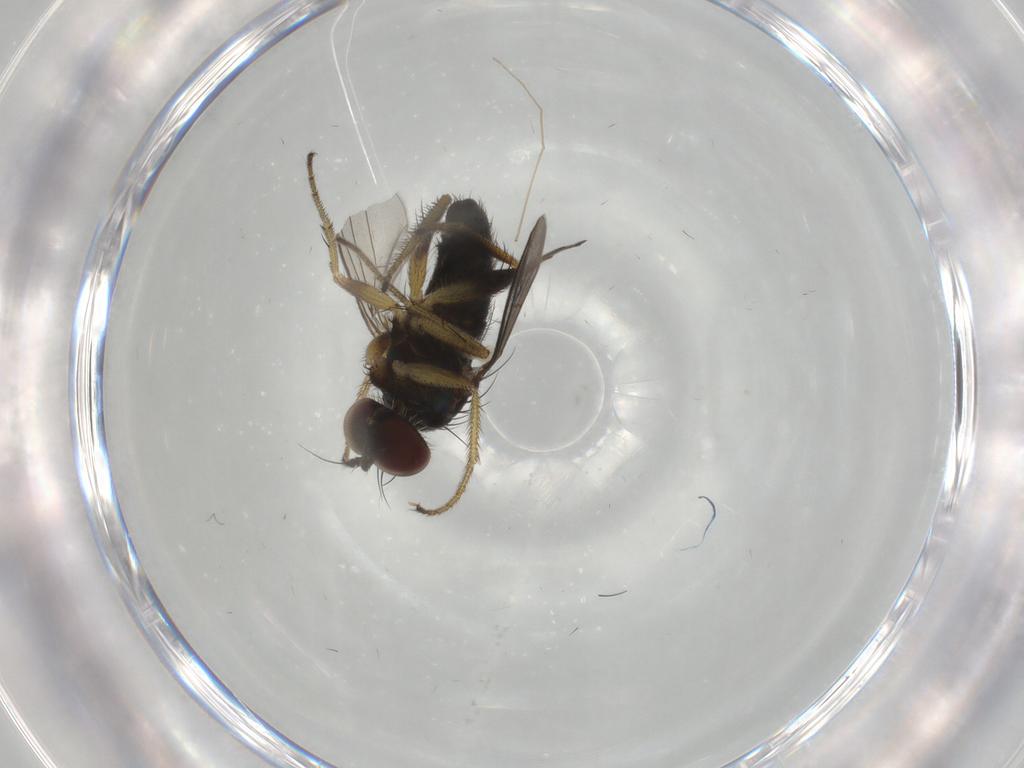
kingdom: Animalia
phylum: Arthropoda
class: Insecta
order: Diptera
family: Dolichopodidae
